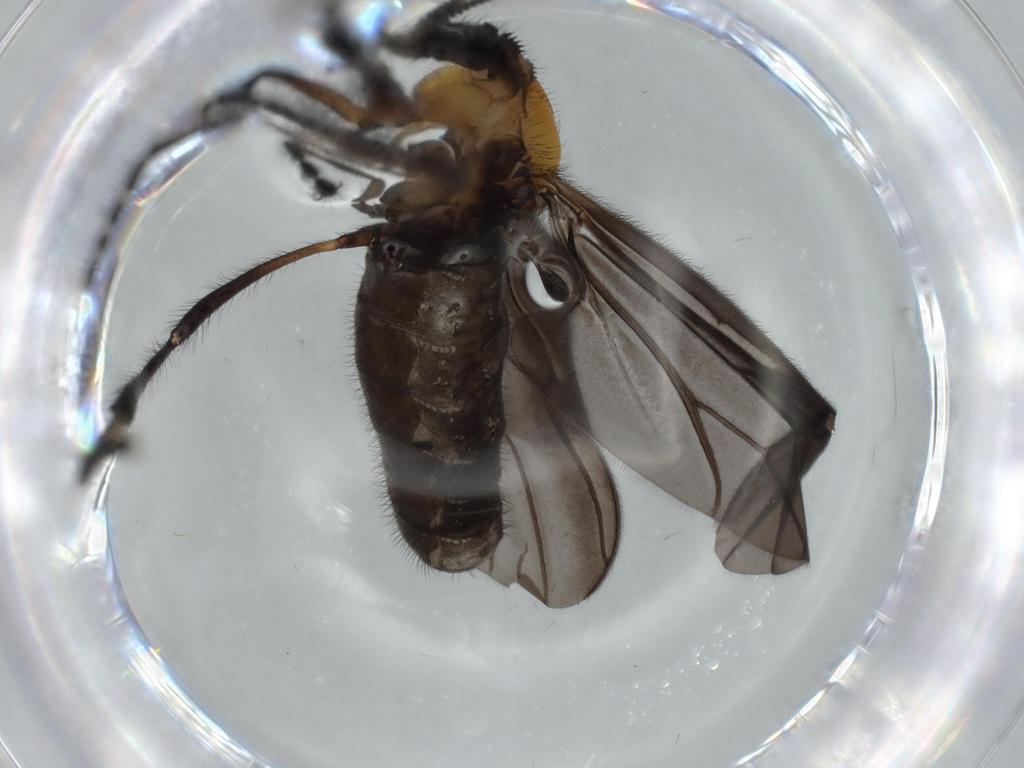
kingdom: Animalia
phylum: Arthropoda
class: Insecta
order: Diptera
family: Bibionidae
